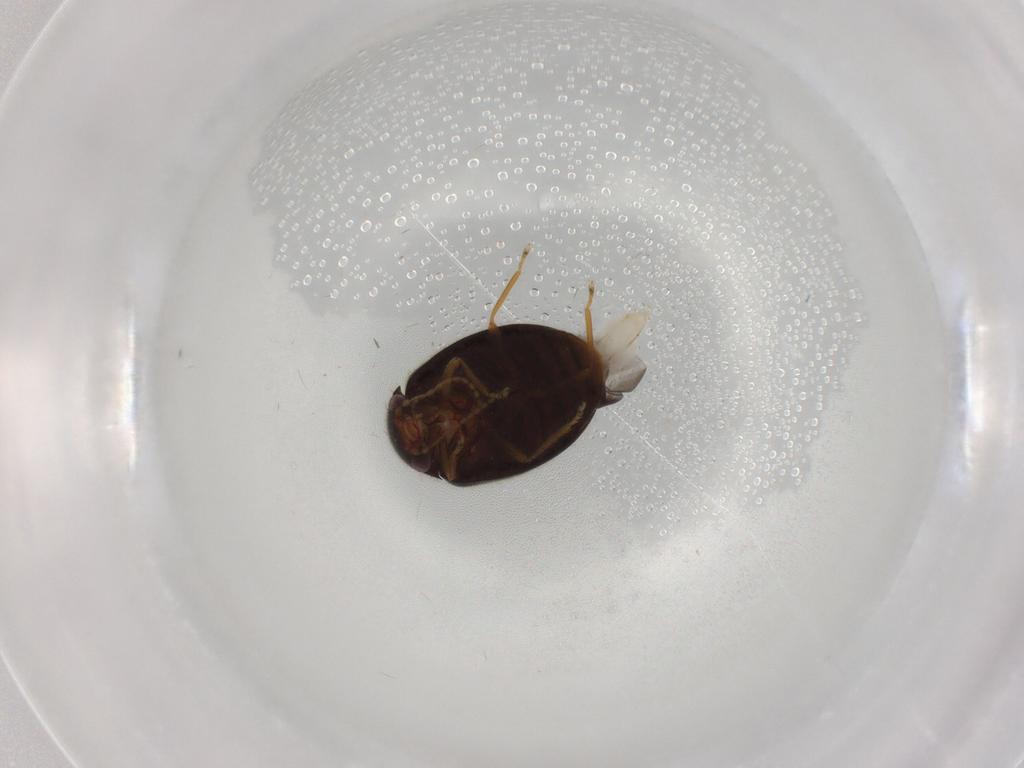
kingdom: Animalia
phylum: Arthropoda
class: Insecta
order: Coleoptera
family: Scirtidae
